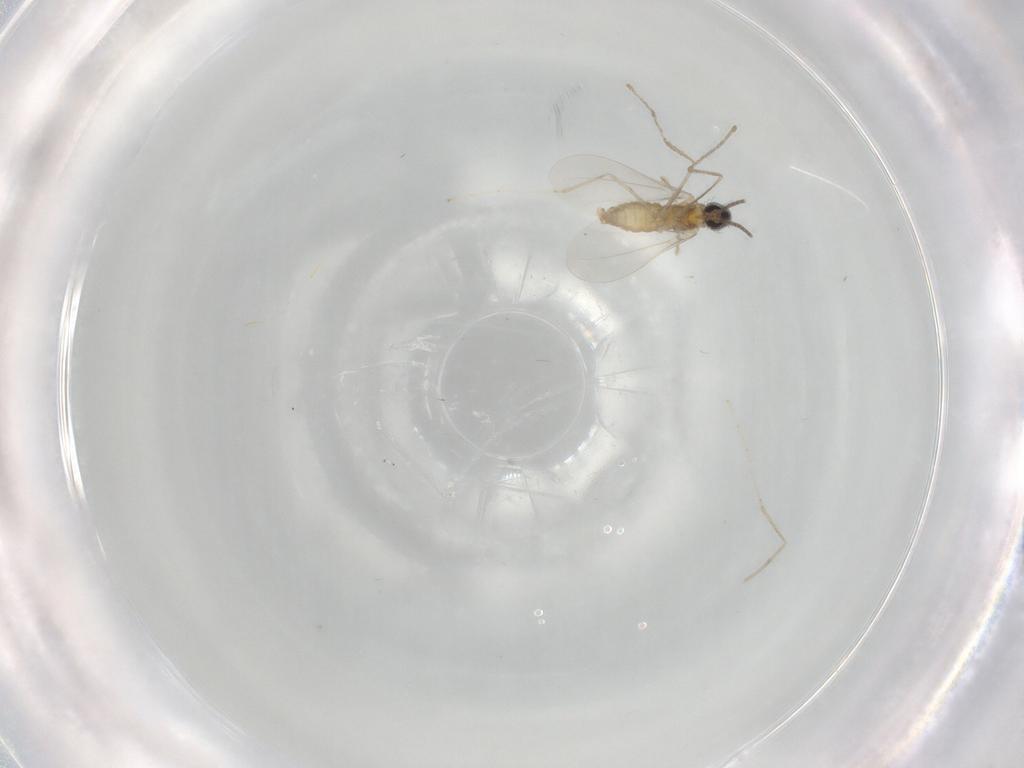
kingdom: Animalia
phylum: Arthropoda
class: Insecta
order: Diptera
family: Cecidomyiidae
